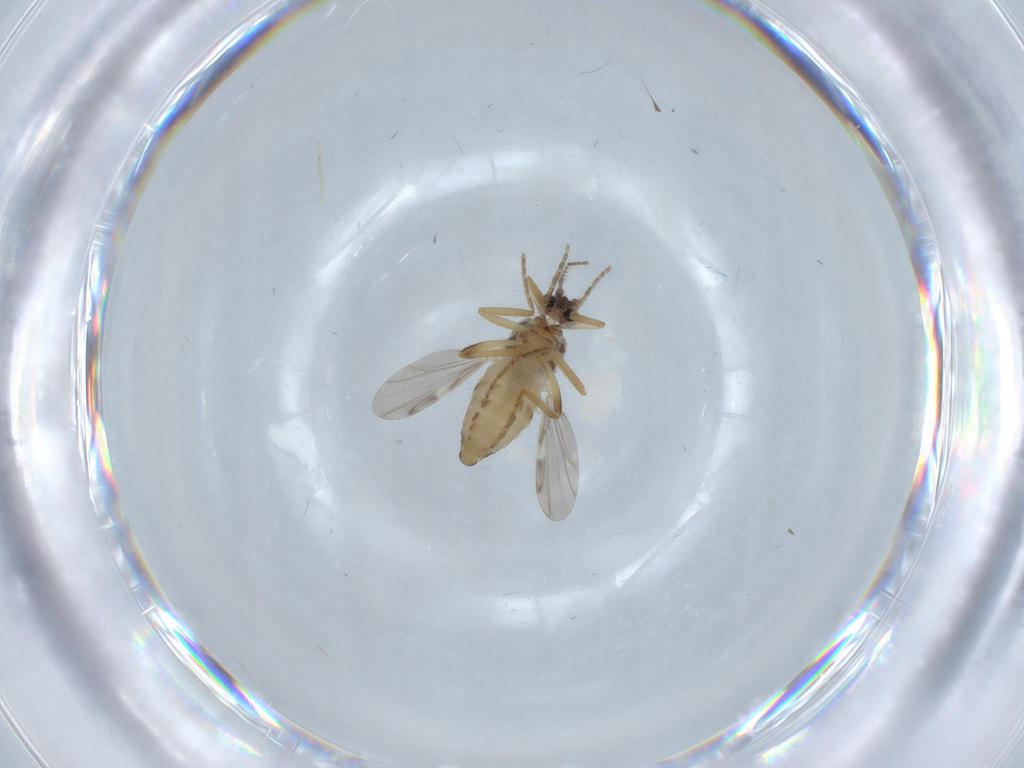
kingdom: Animalia
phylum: Arthropoda
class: Insecta
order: Diptera
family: Ceratopogonidae
